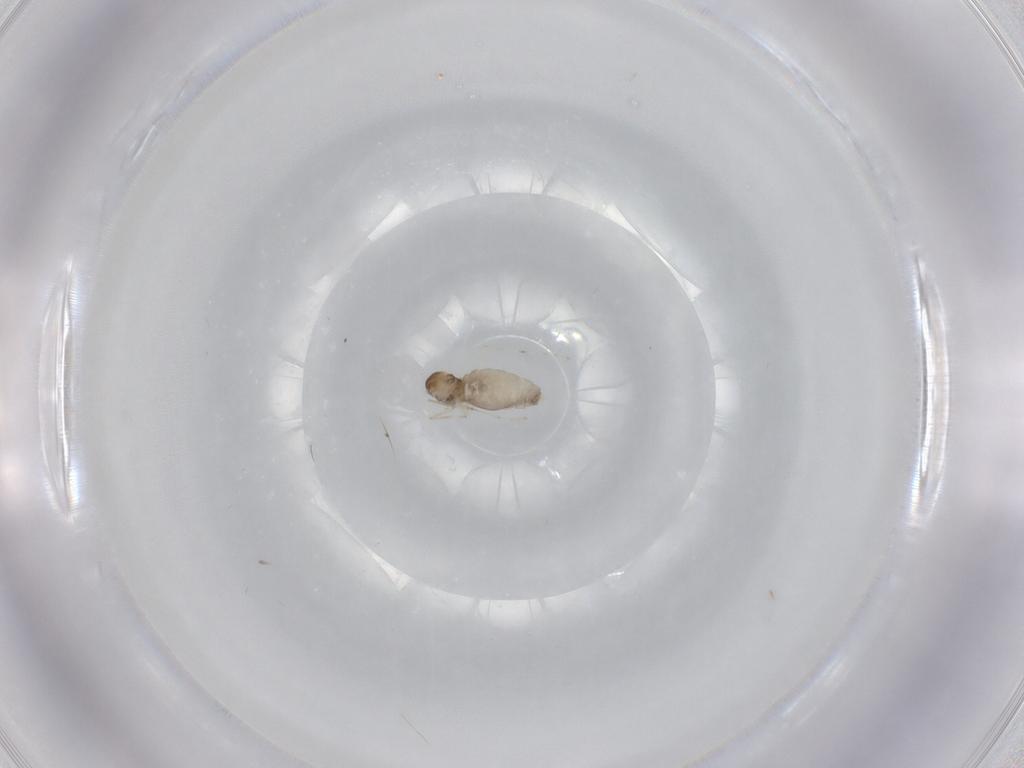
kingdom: Animalia
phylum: Arthropoda
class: Insecta
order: Diptera
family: Cecidomyiidae
